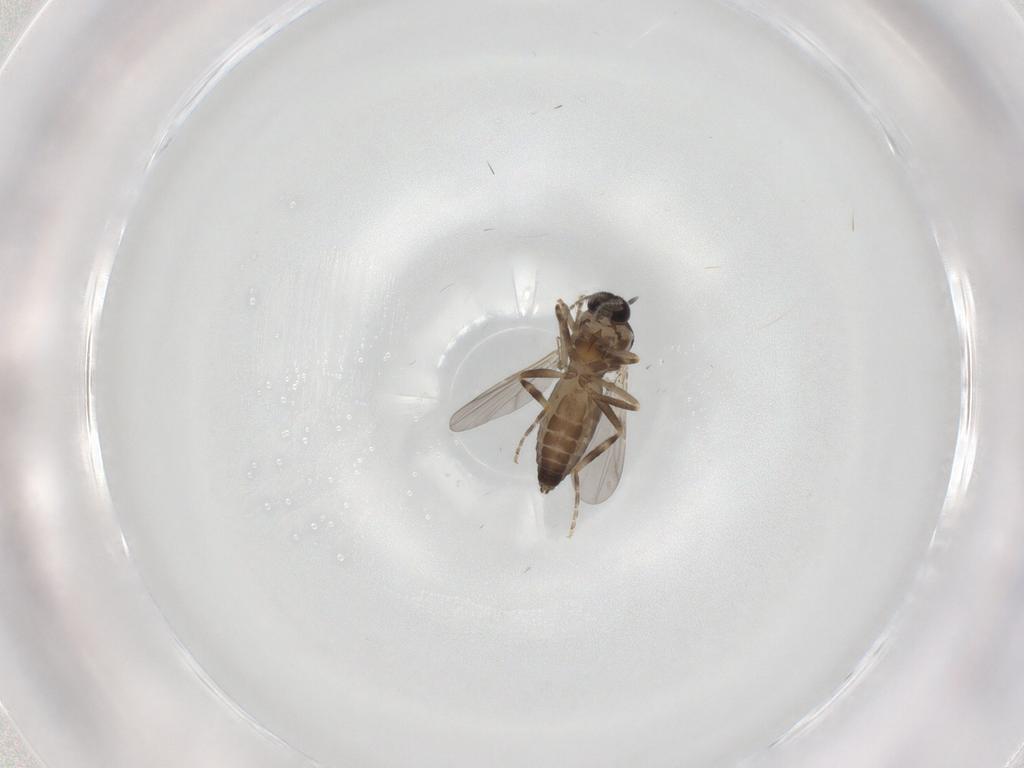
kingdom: Animalia
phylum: Arthropoda
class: Insecta
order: Diptera
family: Ceratopogonidae
